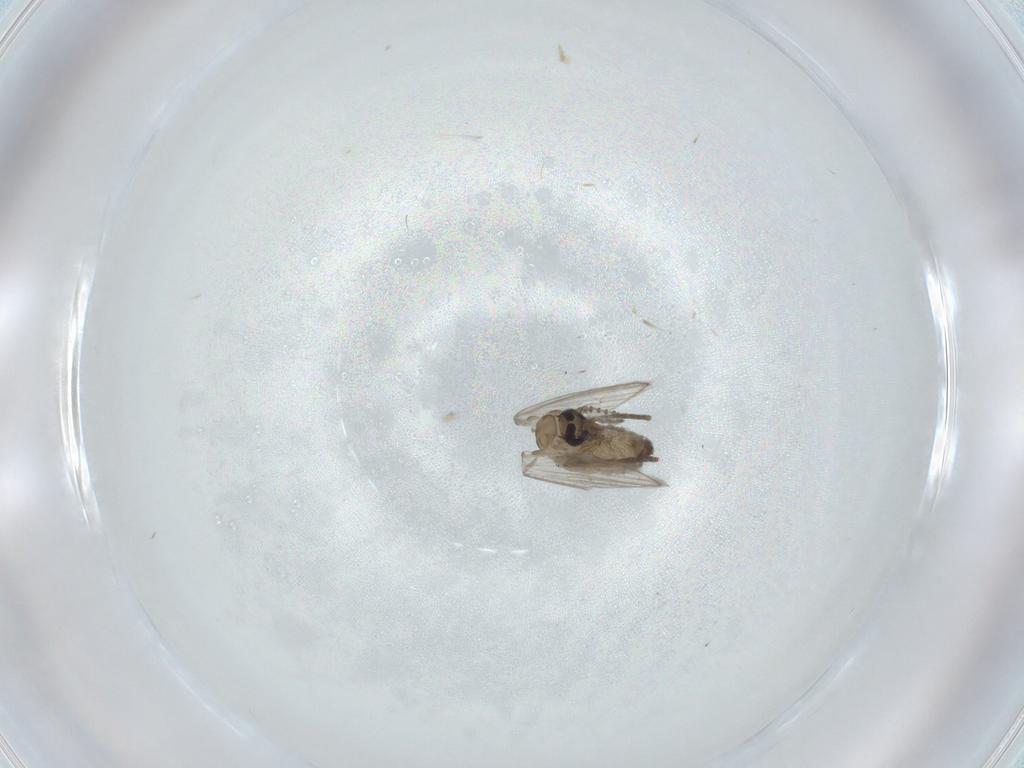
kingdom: Animalia
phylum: Arthropoda
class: Insecta
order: Diptera
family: Psychodidae
